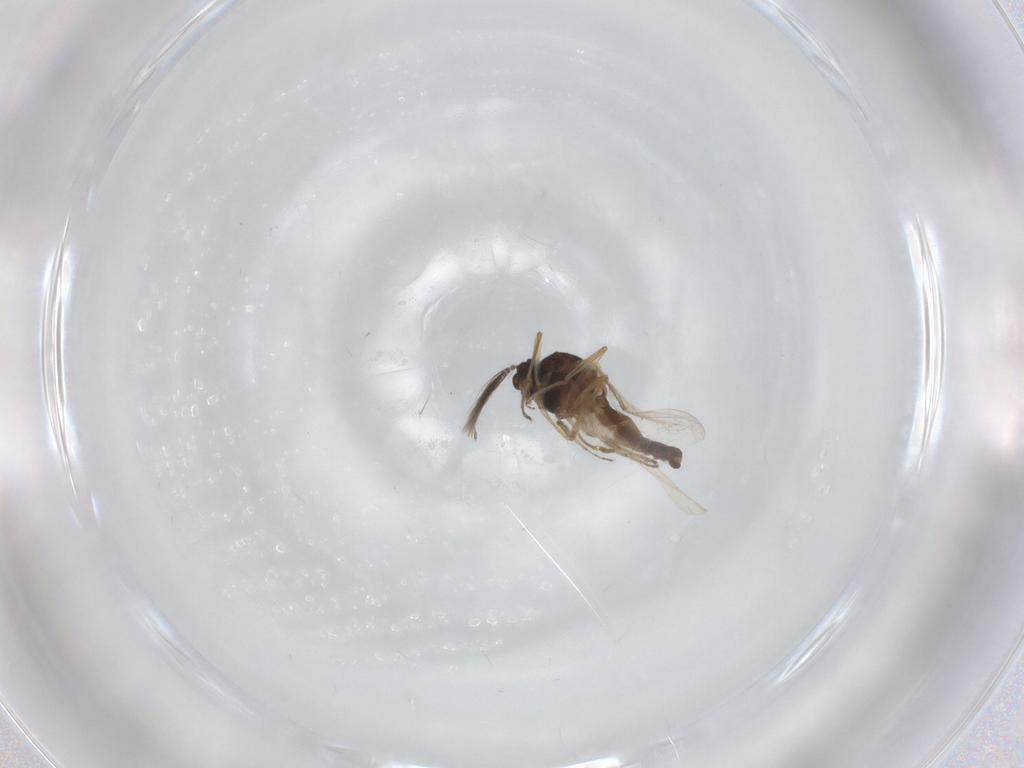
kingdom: Animalia
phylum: Arthropoda
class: Insecta
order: Diptera
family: Ceratopogonidae
